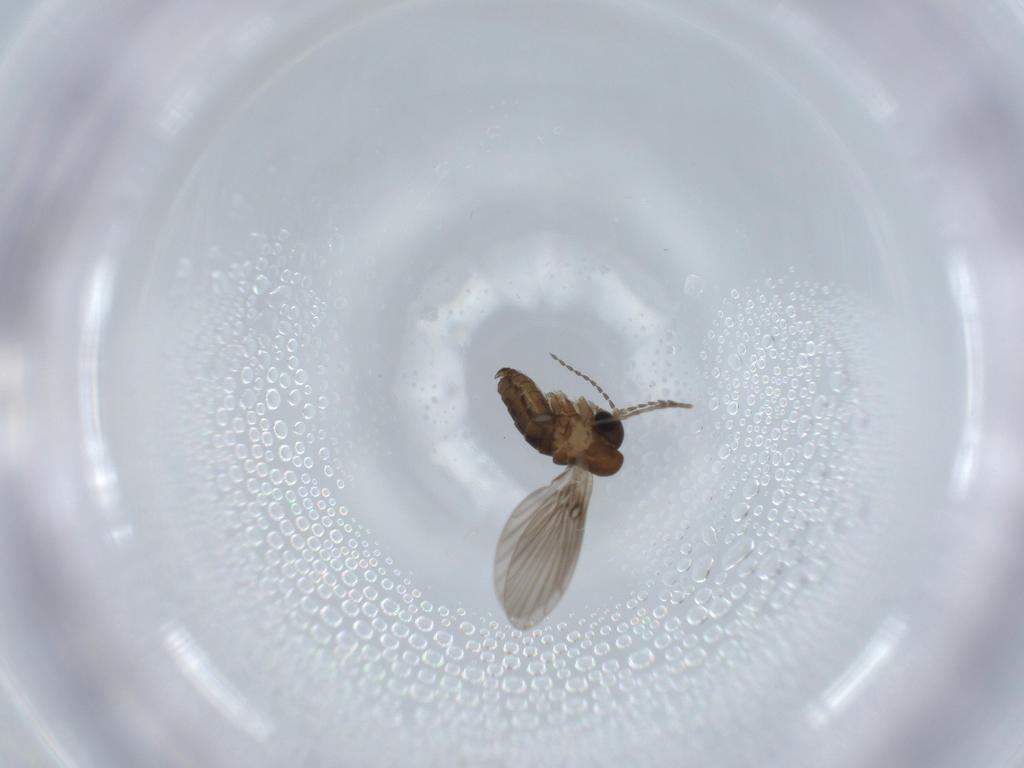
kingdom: Animalia
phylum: Arthropoda
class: Insecta
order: Diptera
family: Psychodidae
